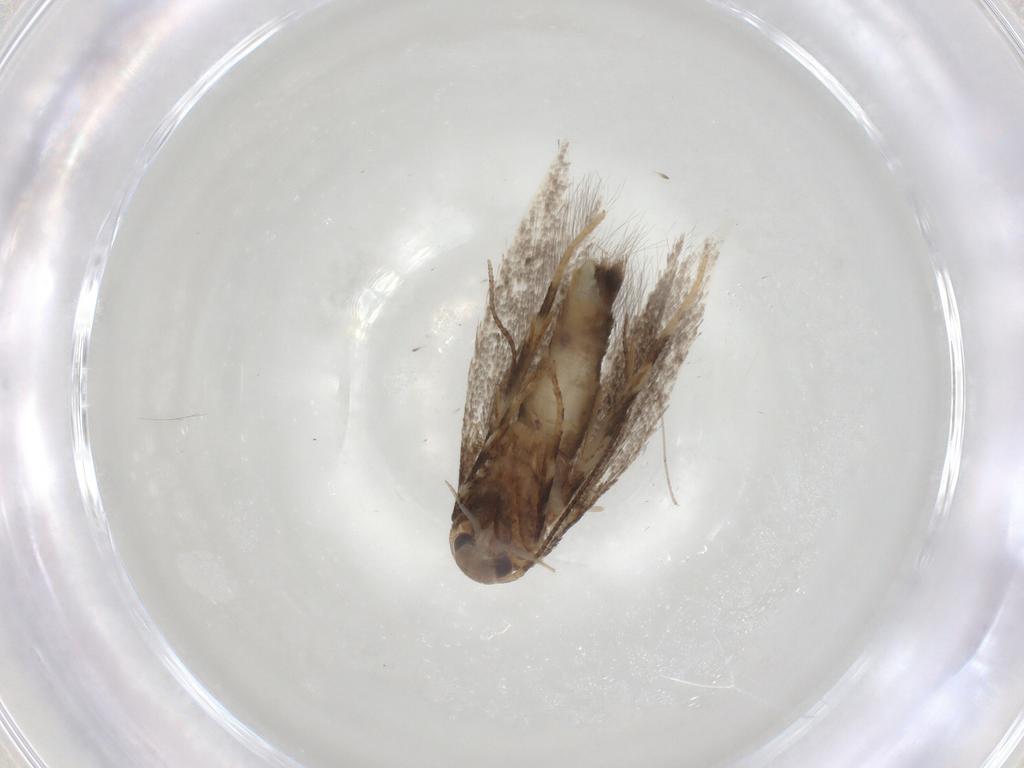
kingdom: Animalia
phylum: Arthropoda
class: Insecta
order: Lepidoptera
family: Elachistidae
